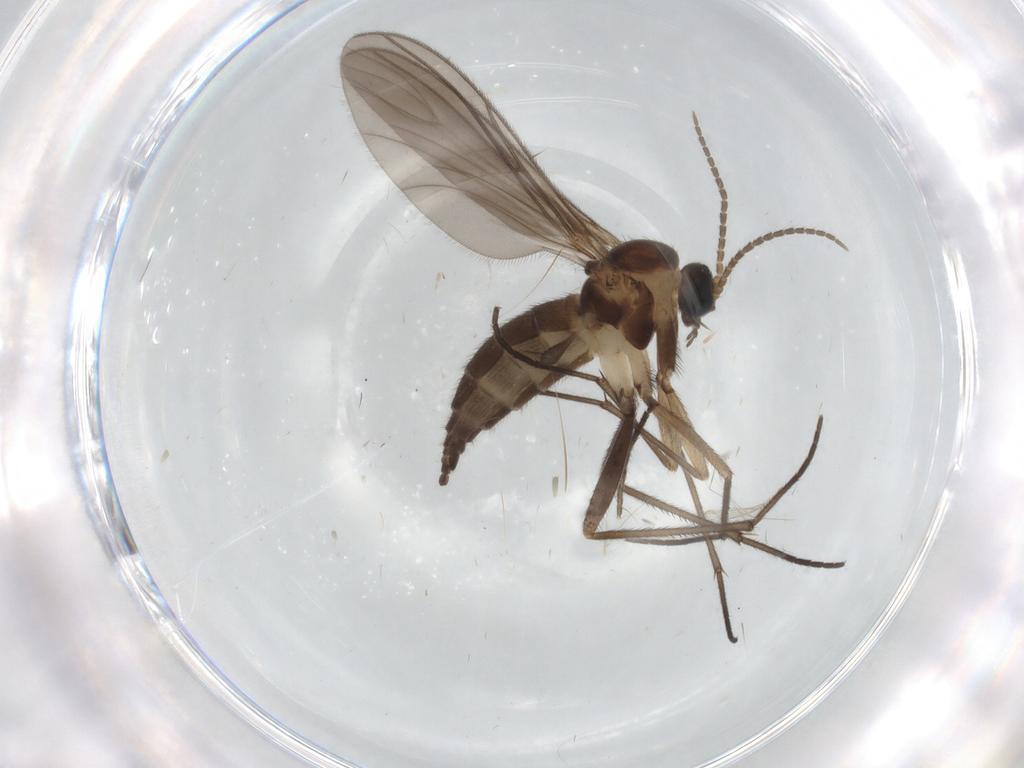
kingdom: Animalia
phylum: Arthropoda
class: Insecta
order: Diptera
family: Sciaridae
